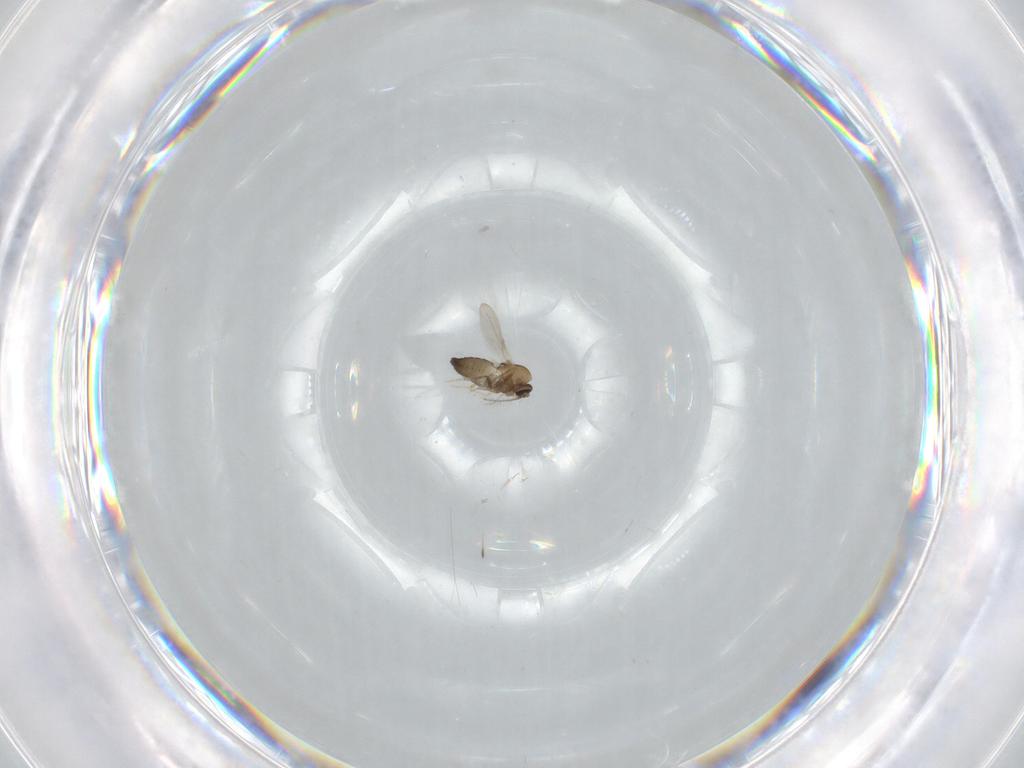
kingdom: Animalia
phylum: Arthropoda
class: Insecta
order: Diptera
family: Ceratopogonidae
